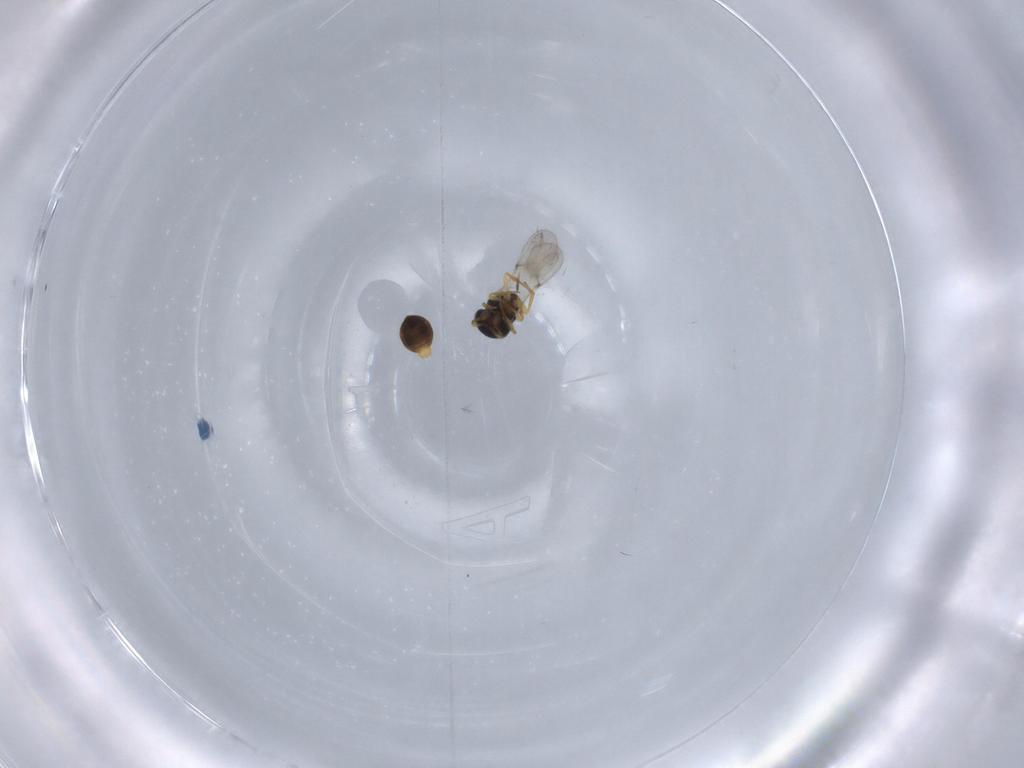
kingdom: Animalia
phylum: Arthropoda
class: Insecta
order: Hymenoptera
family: Scelionidae
